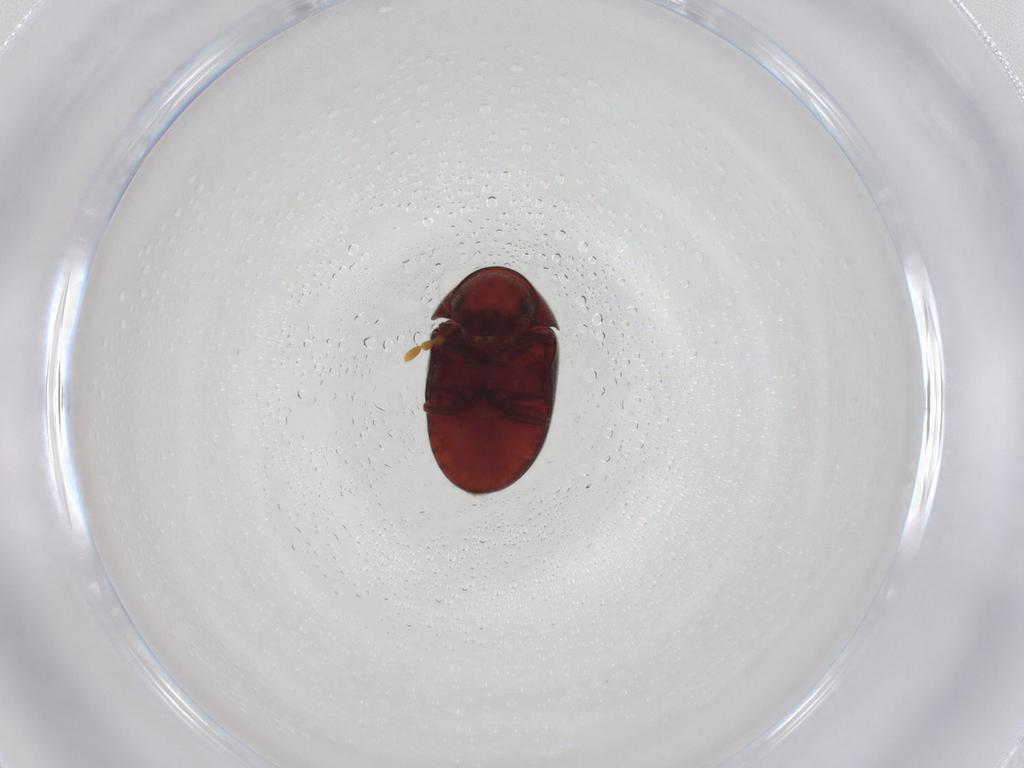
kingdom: Animalia
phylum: Arthropoda
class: Insecta
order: Coleoptera
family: Ptinidae
